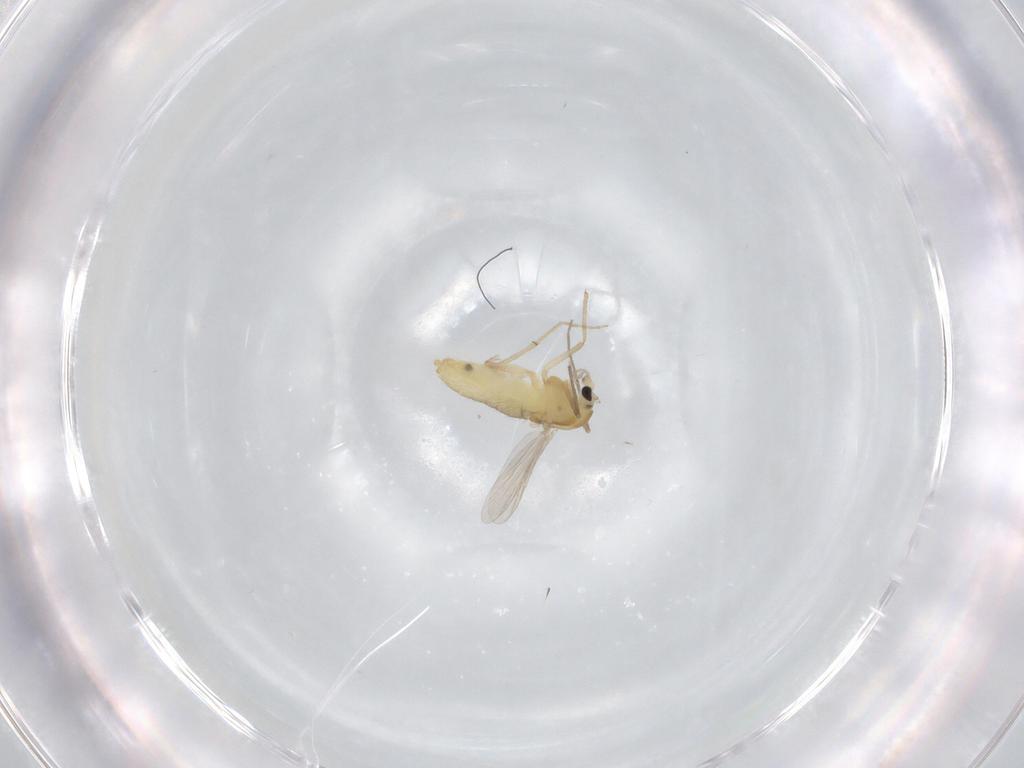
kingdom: Animalia
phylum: Arthropoda
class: Insecta
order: Diptera
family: Chironomidae
